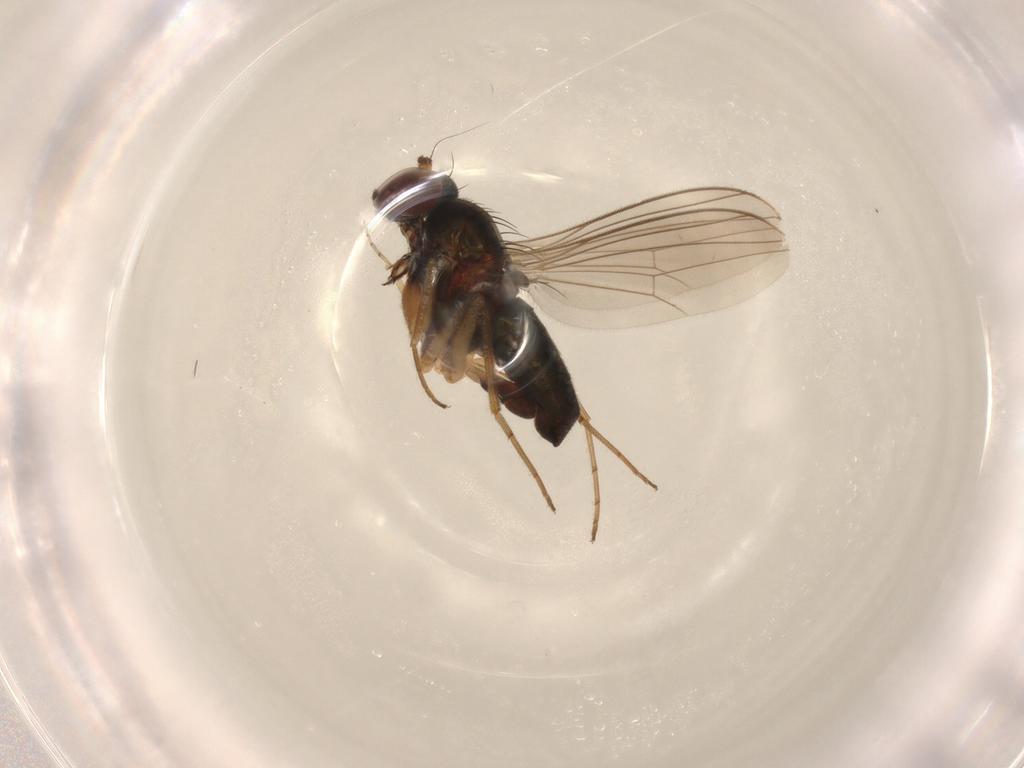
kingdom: Animalia
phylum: Arthropoda
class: Insecta
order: Diptera
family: Dolichopodidae
